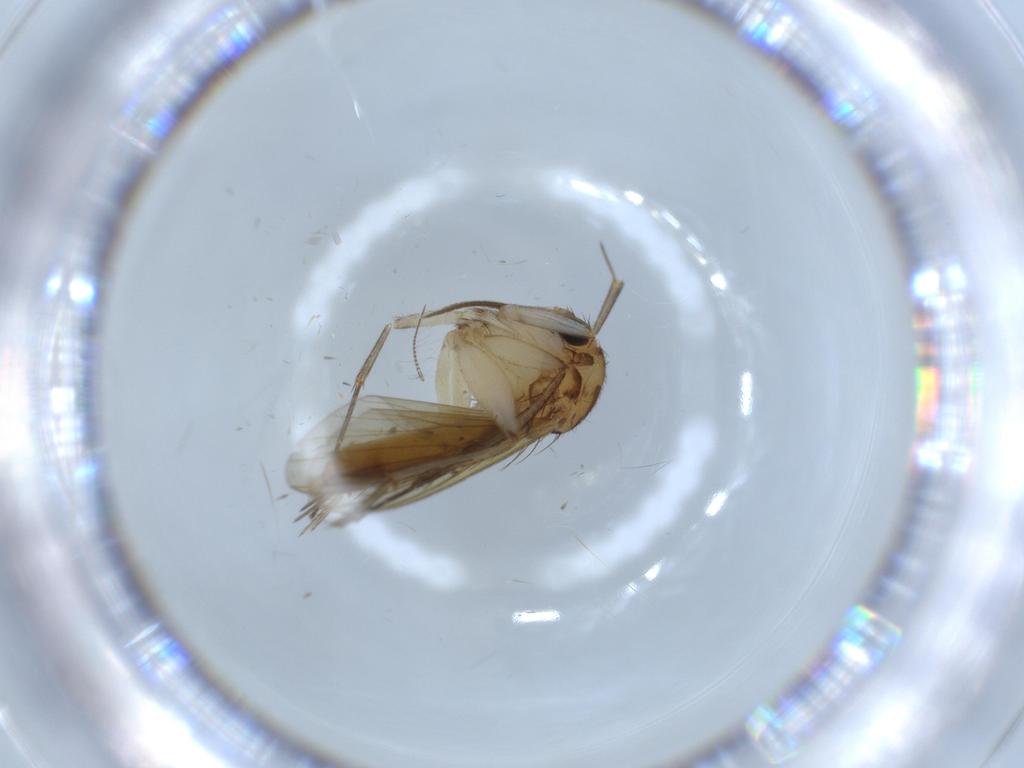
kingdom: Animalia
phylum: Arthropoda
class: Insecta
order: Diptera
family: Mycetophilidae
